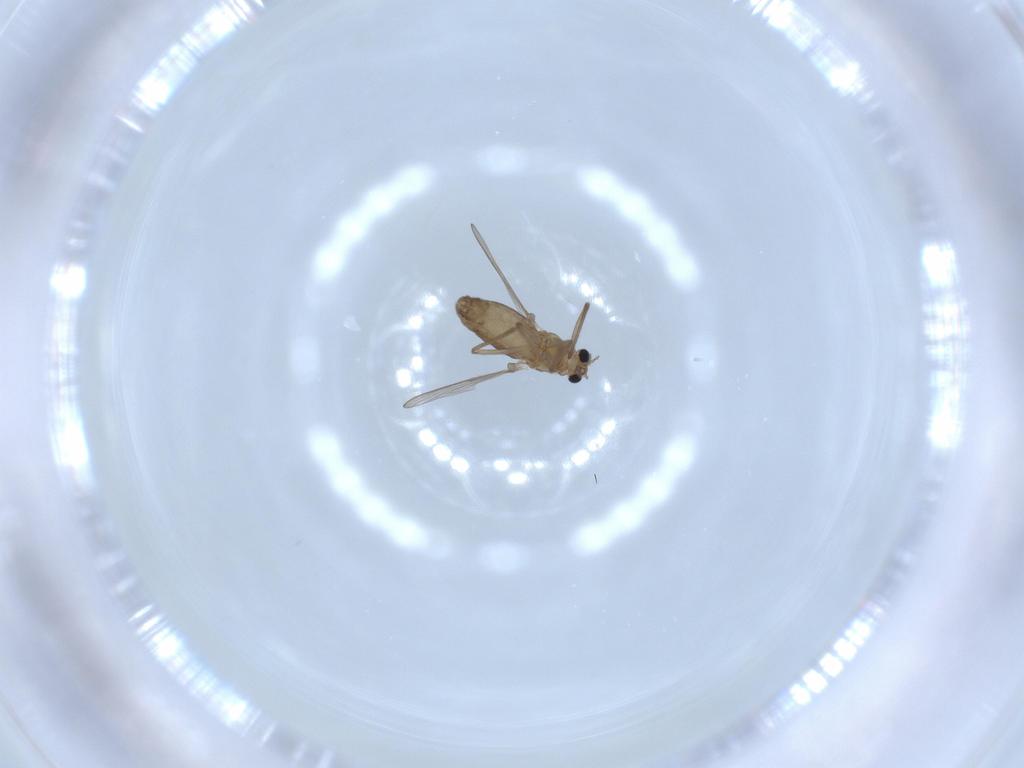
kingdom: Animalia
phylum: Arthropoda
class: Insecta
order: Diptera
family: Chironomidae
